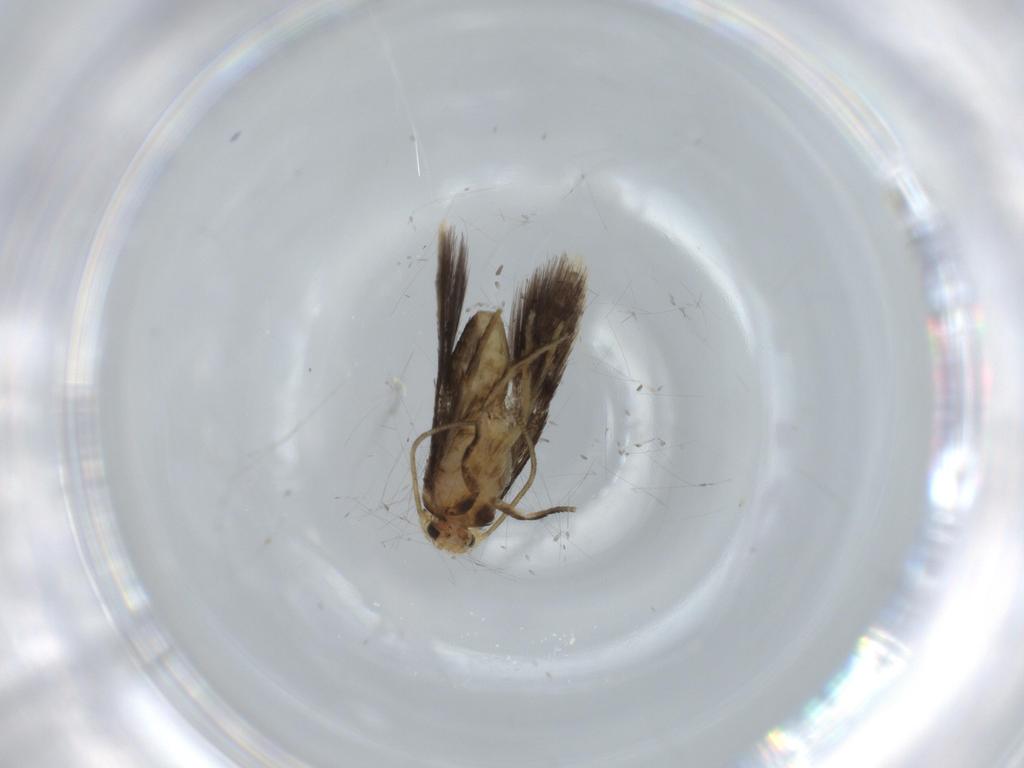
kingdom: Animalia
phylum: Arthropoda
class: Insecta
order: Lepidoptera
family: Nepticulidae
